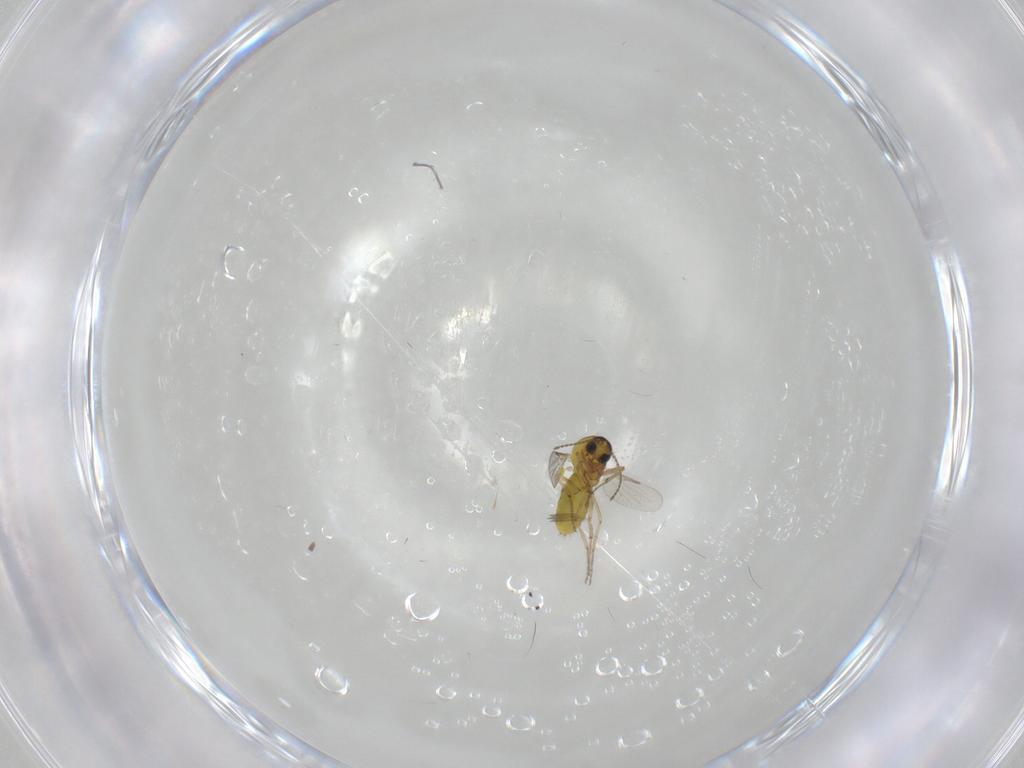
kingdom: Animalia
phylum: Arthropoda
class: Insecta
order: Diptera
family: Ceratopogonidae
